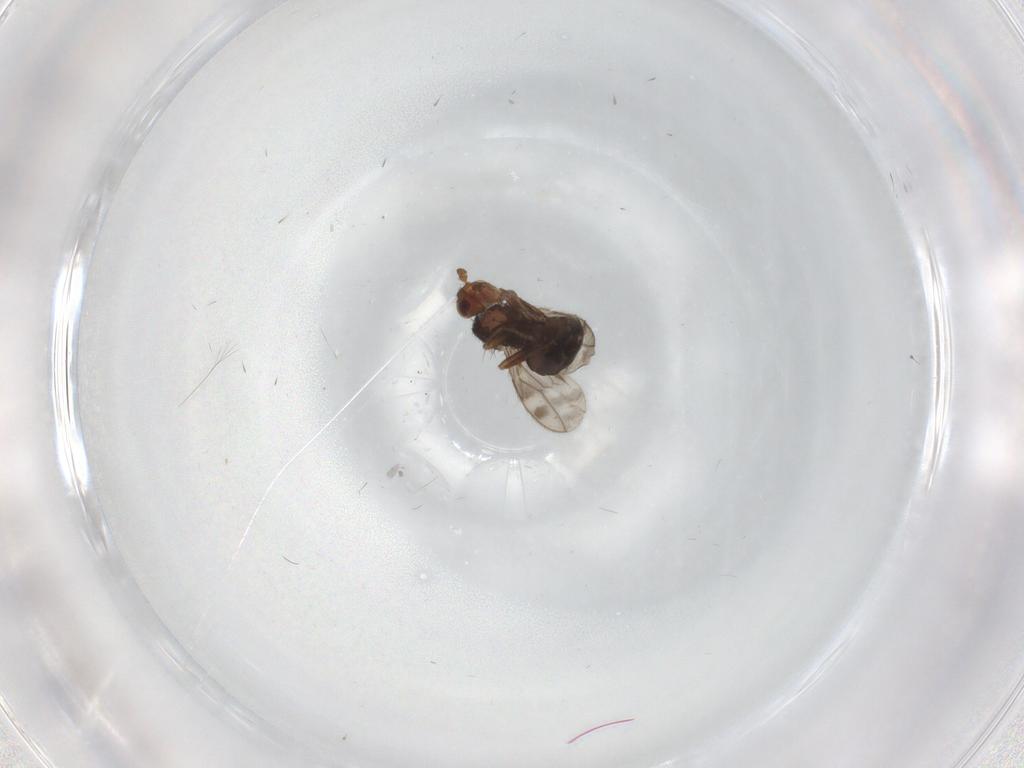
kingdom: Animalia
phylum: Arthropoda
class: Insecta
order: Diptera
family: Sphaeroceridae
